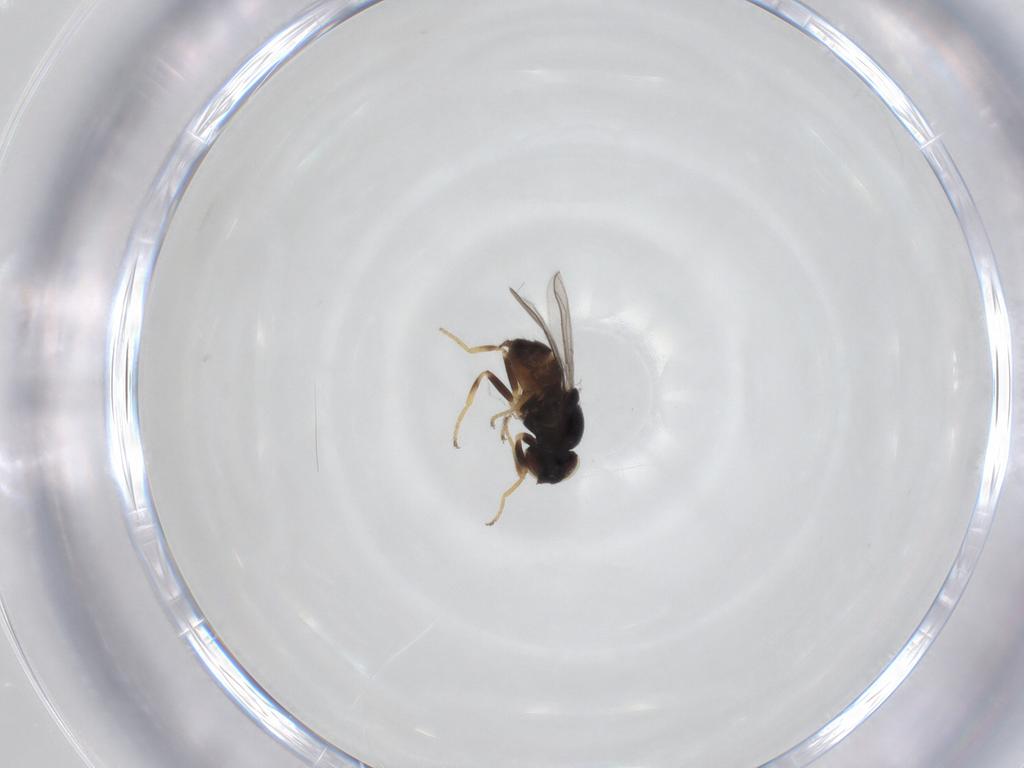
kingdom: Animalia
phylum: Arthropoda
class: Insecta
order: Diptera
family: Chloropidae
